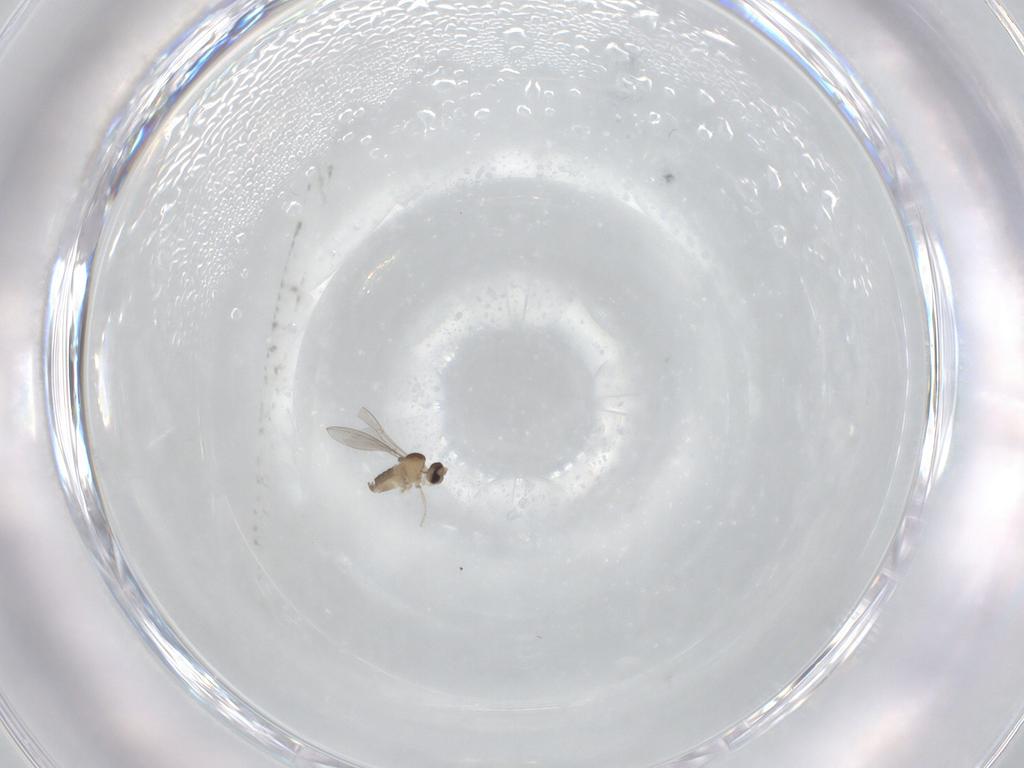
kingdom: Animalia
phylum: Arthropoda
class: Insecta
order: Diptera
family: Cecidomyiidae
